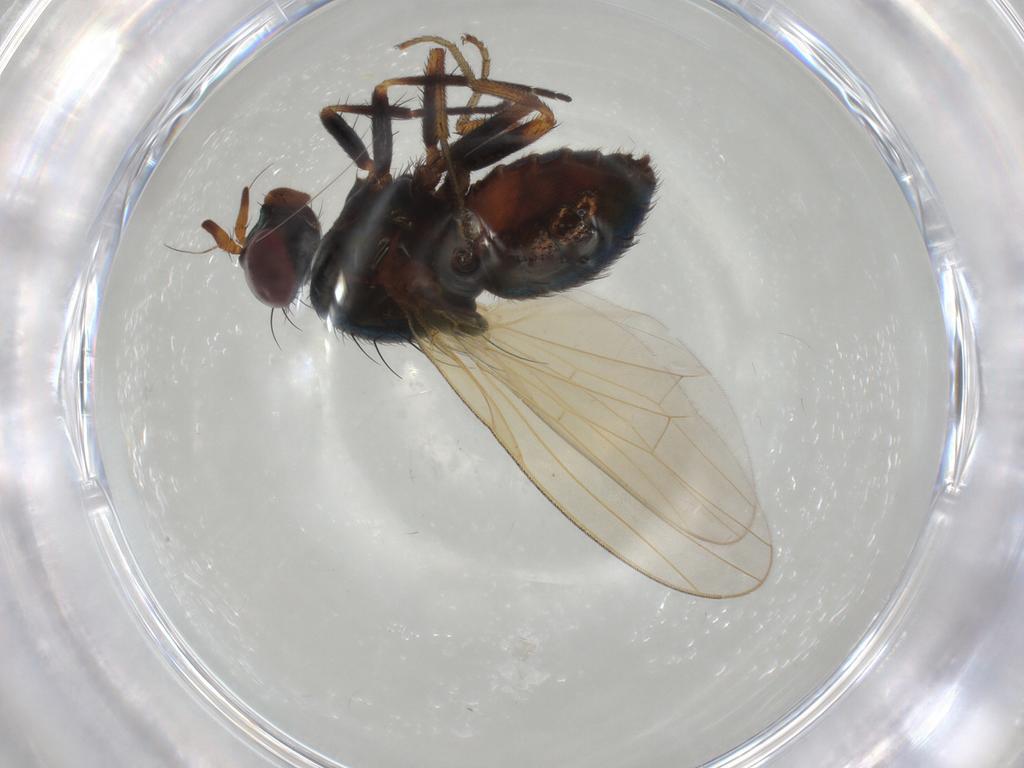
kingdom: Animalia
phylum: Arthropoda
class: Insecta
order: Diptera
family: Lauxaniidae
